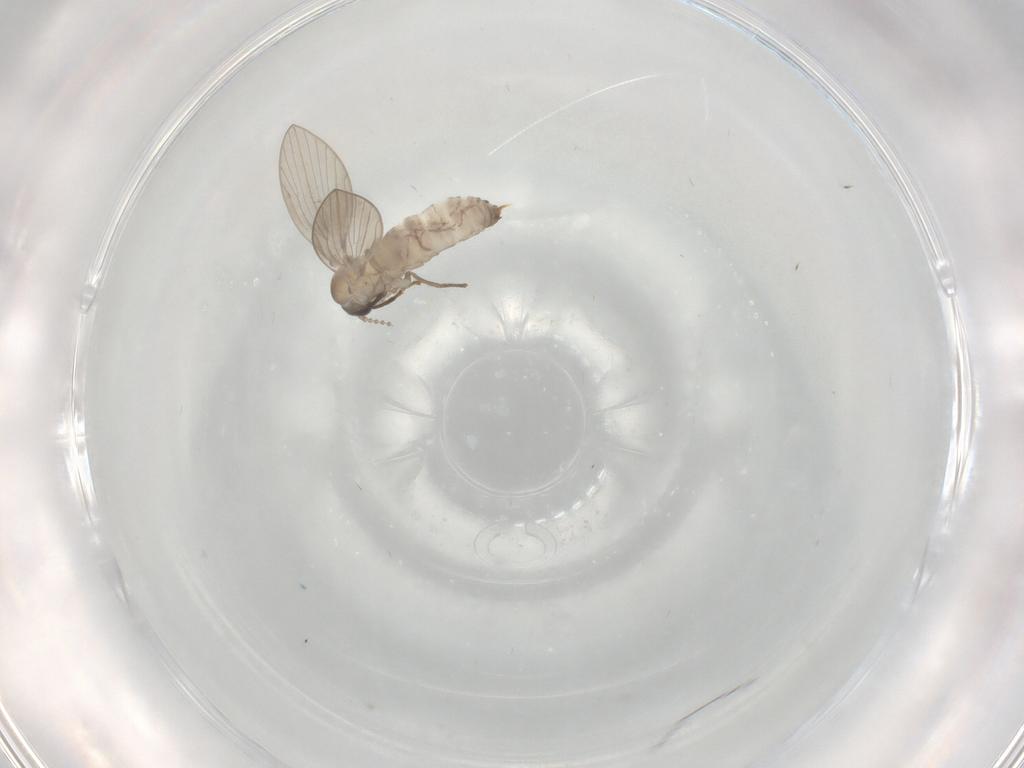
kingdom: Animalia
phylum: Arthropoda
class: Insecta
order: Diptera
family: Psychodidae
